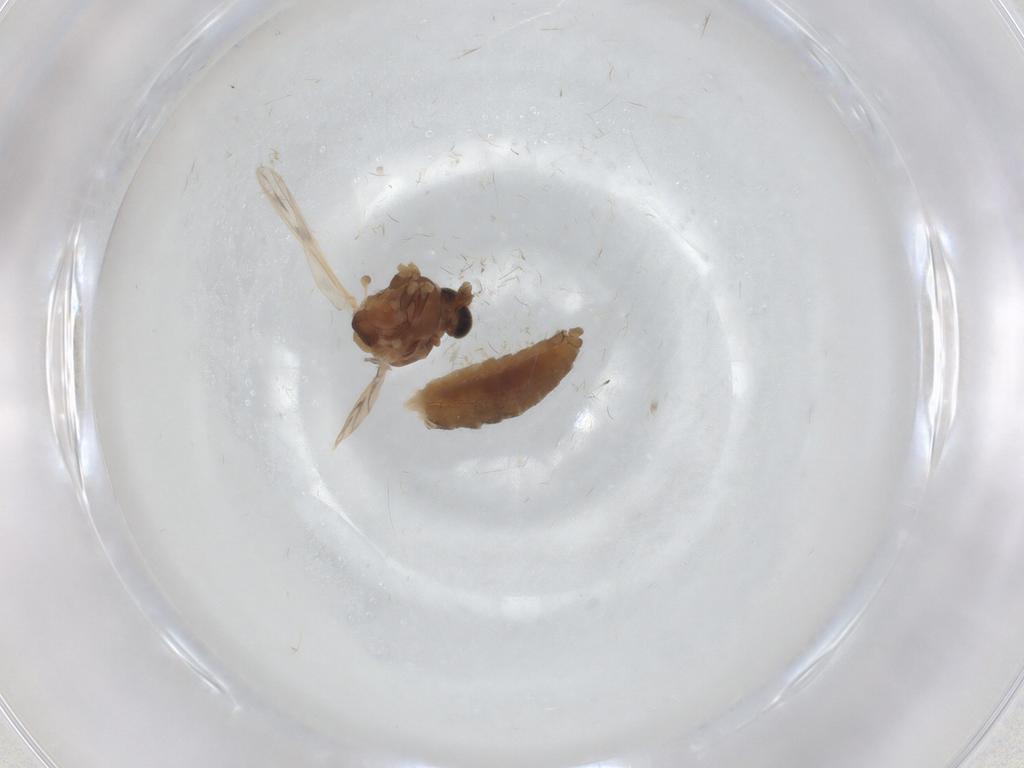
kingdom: Animalia
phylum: Arthropoda
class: Insecta
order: Diptera
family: Chironomidae
